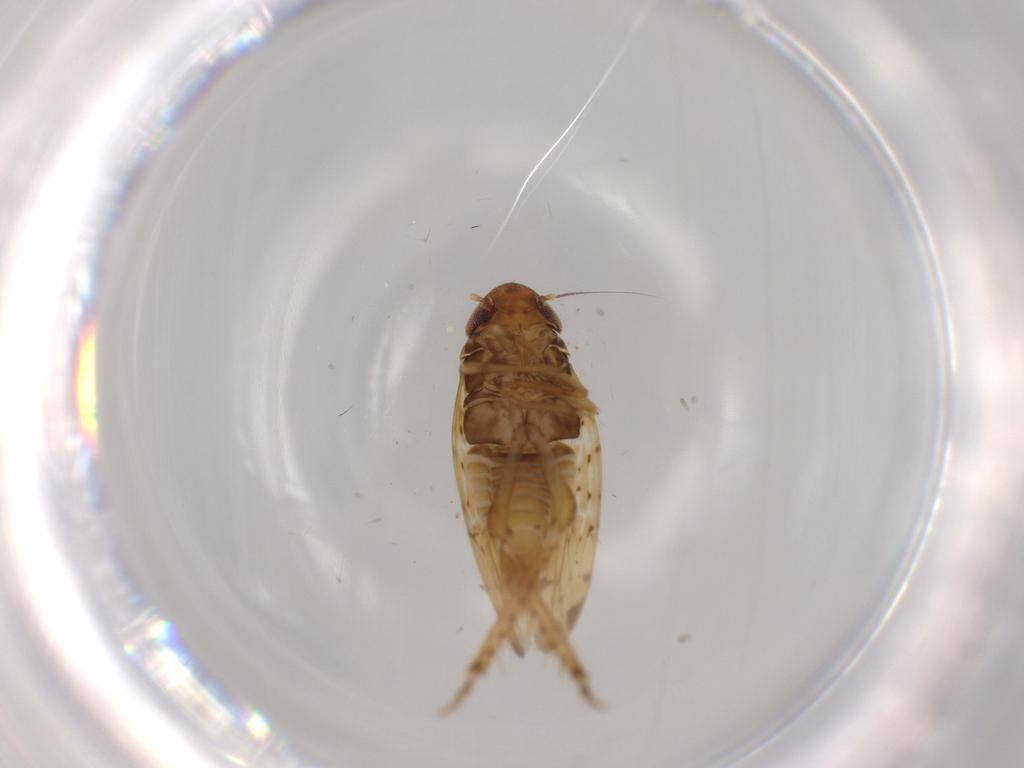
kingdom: Animalia
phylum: Arthropoda
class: Insecta
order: Hemiptera
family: Cicadellidae
